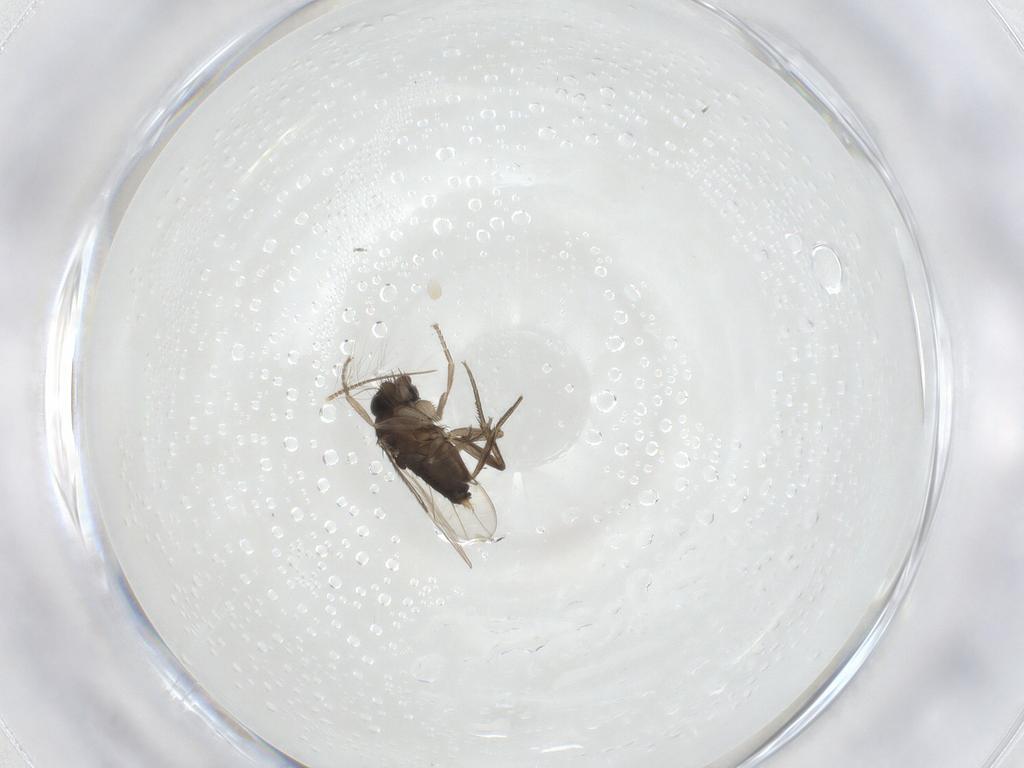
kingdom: Animalia
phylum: Arthropoda
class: Insecta
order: Diptera
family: Phoridae
